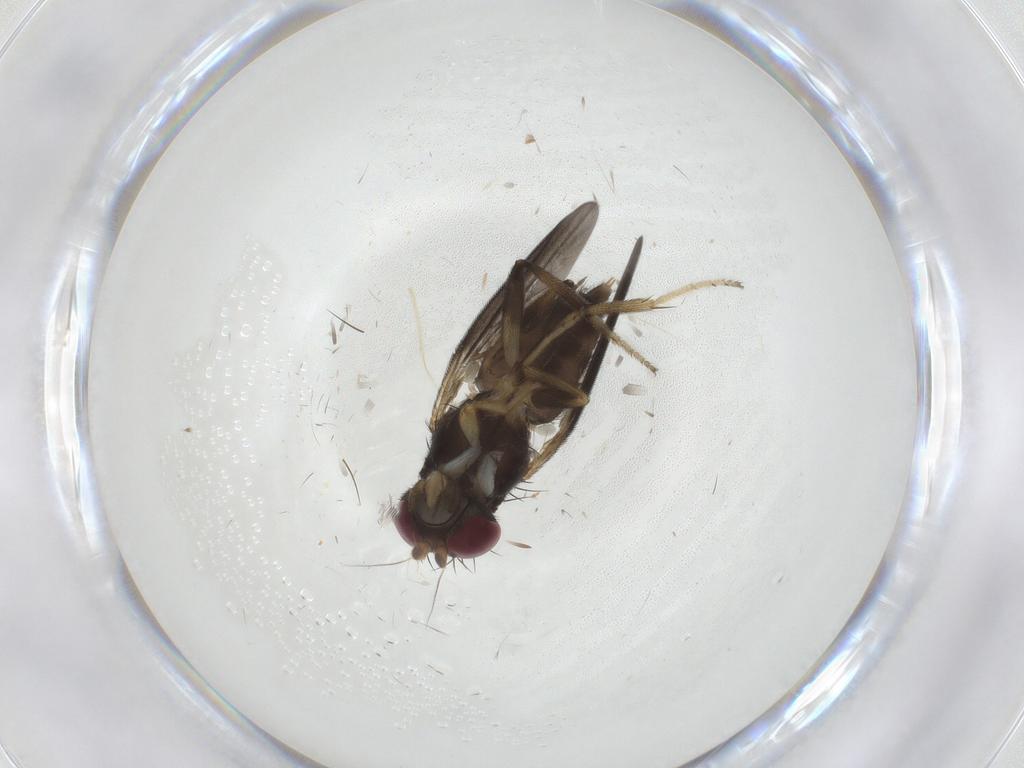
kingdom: Animalia
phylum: Arthropoda
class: Insecta
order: Diptera
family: Clusiidae
